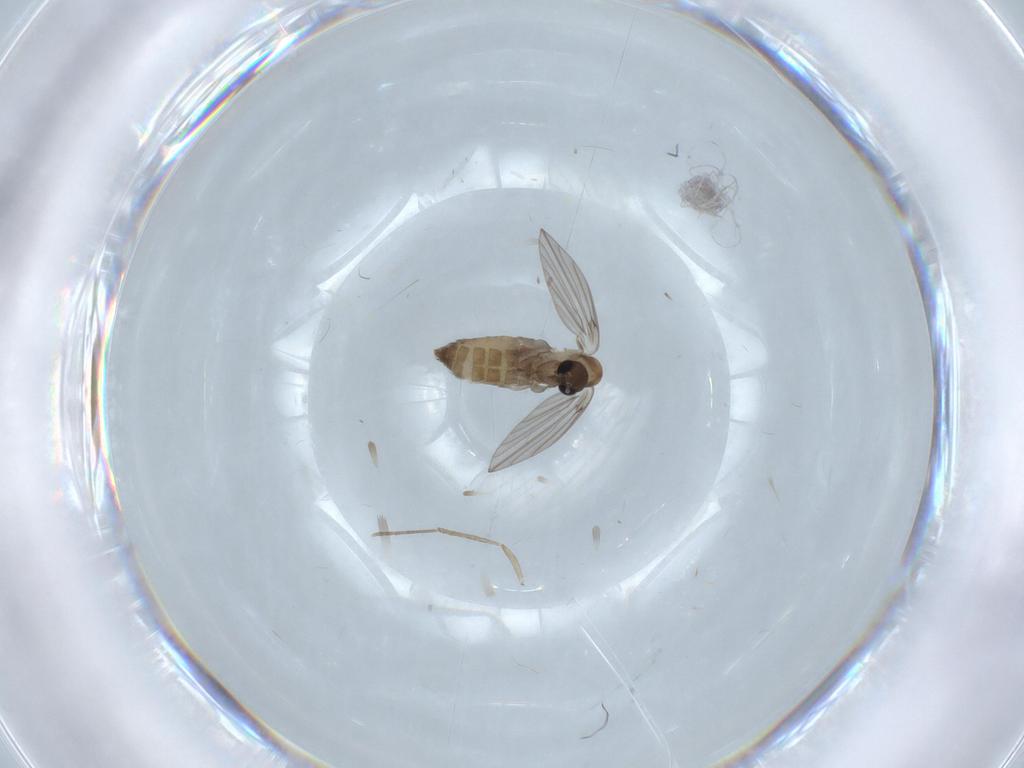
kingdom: Animalia
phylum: Arthropoda
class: Insecta
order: Diptera
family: Psychodidae
